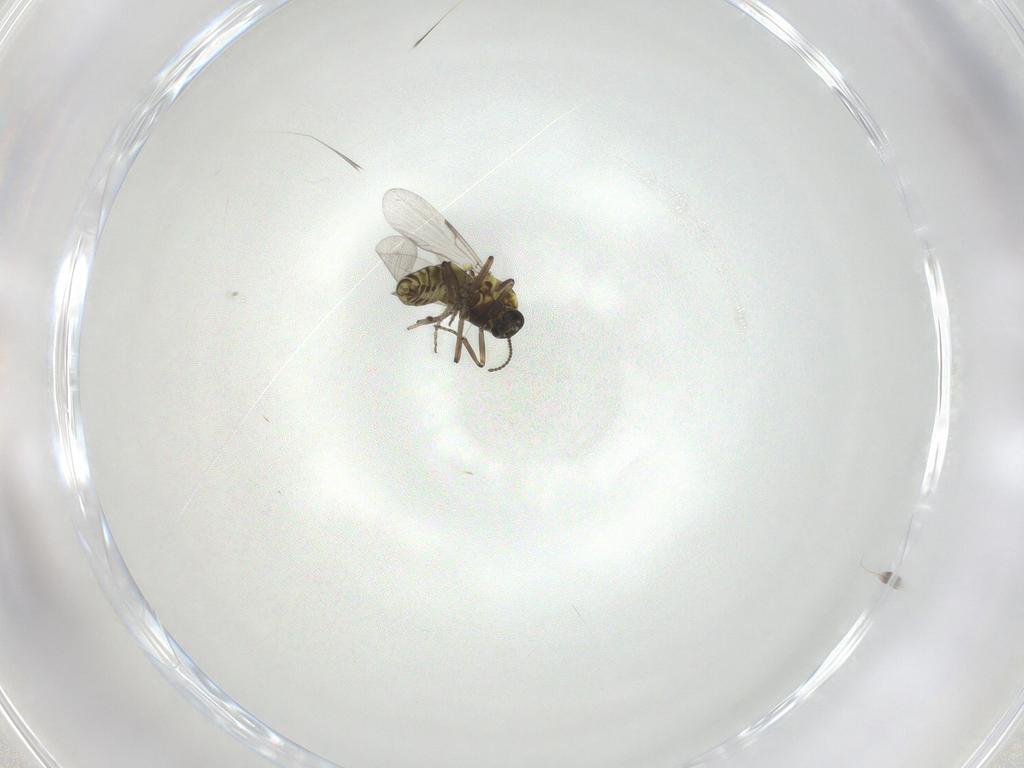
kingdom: Animalia
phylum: Arthropoda
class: Insecta
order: Diptera
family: Ceratopogonidae
